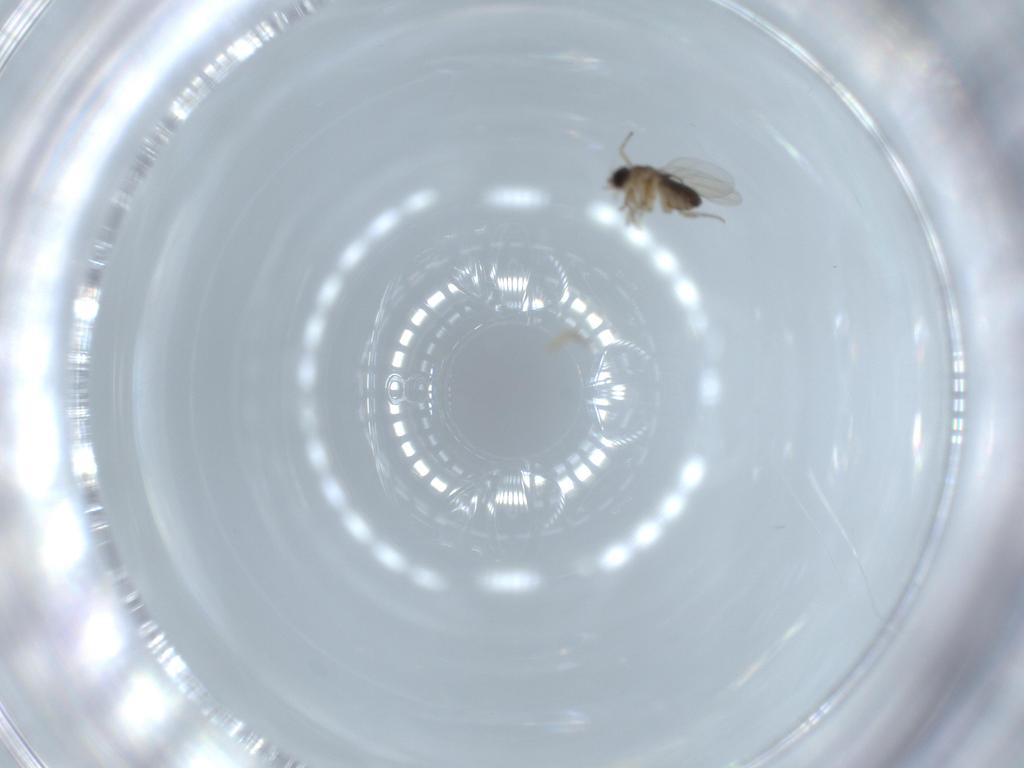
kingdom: Animalia
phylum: Arthropoda
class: Insecta
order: Diptera
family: Phoridae
